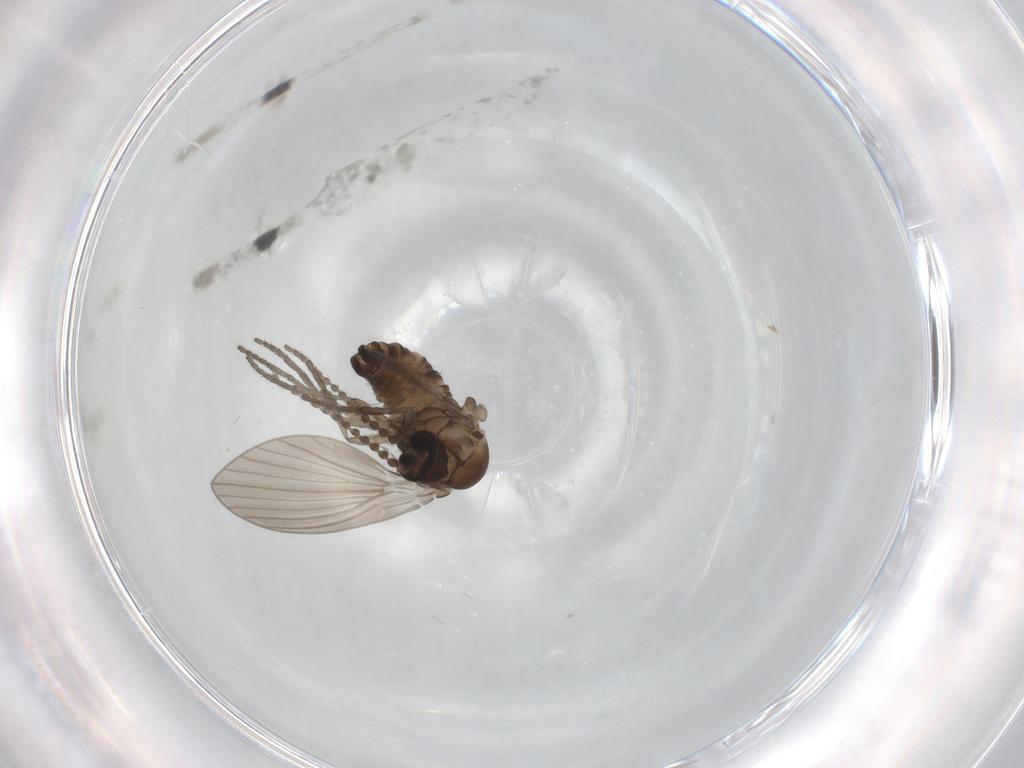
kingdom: Animalia
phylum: Arthropoda
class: Insecta
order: Diptera
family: Psychodidae
